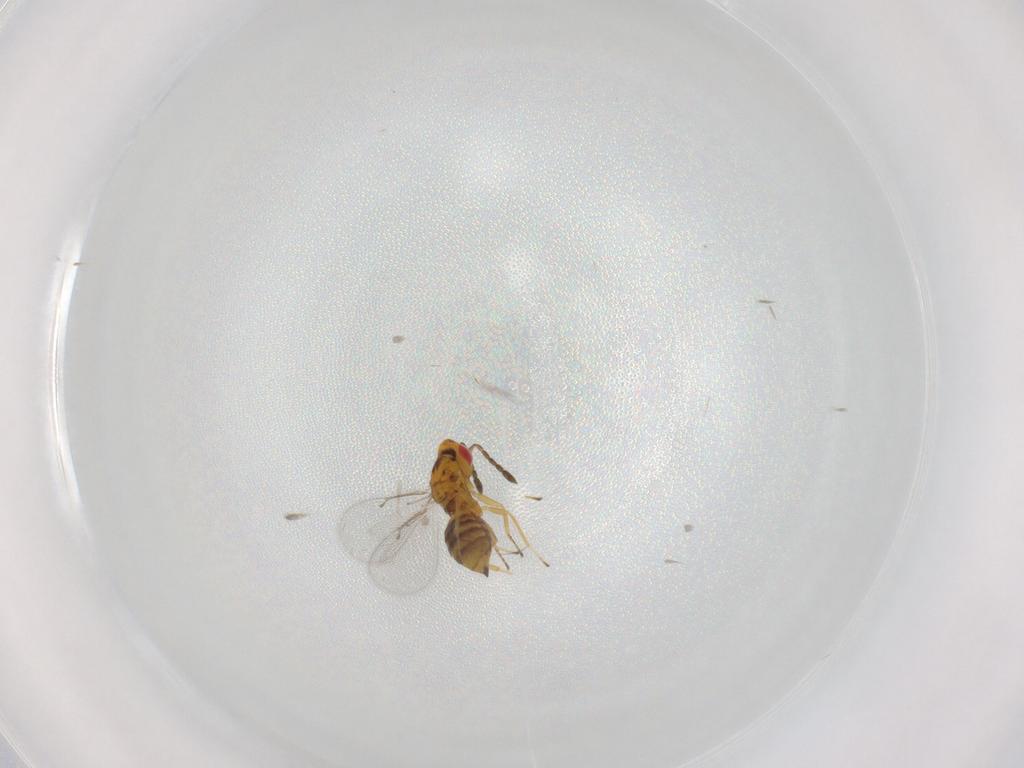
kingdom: Animalia
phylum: Arthropoda
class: Insecta
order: Hymenoptera
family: Eulophidae
